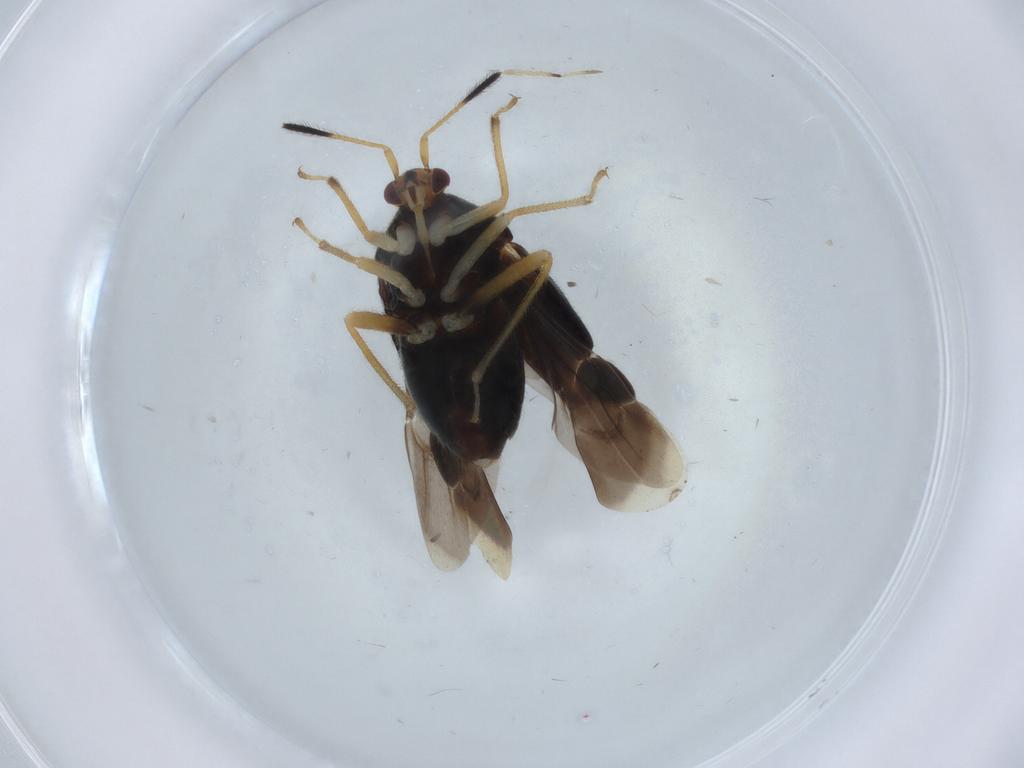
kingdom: Animalia
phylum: Arthropoda
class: Insecta
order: Hemiptera
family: Miridae
